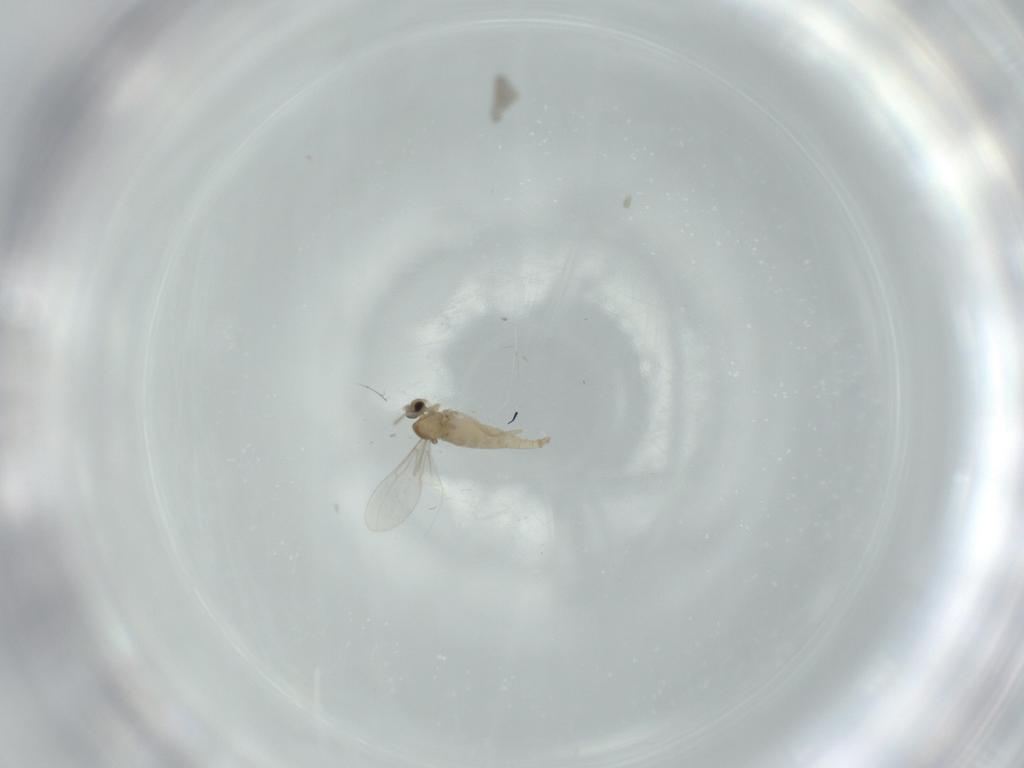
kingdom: Animalia
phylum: Arthropoda
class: Insecta
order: Diptera
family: Cecidomyiidae
